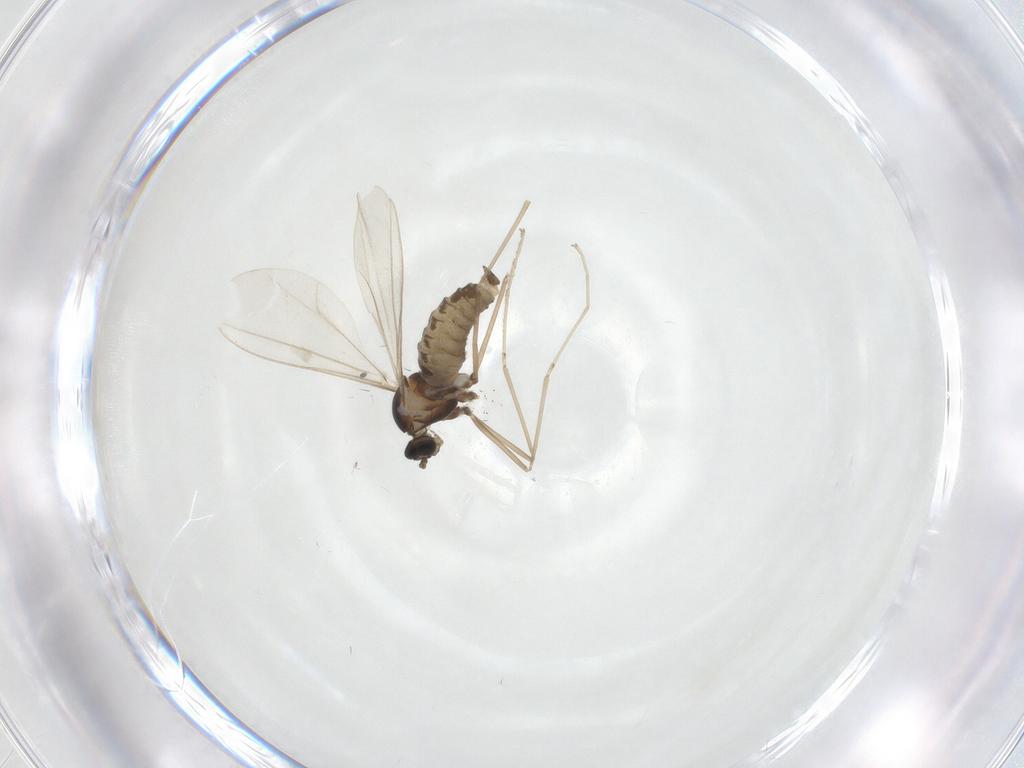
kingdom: Animalia
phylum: Arthropoda
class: Insecta
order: Diptera
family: Cecidomyiidae
